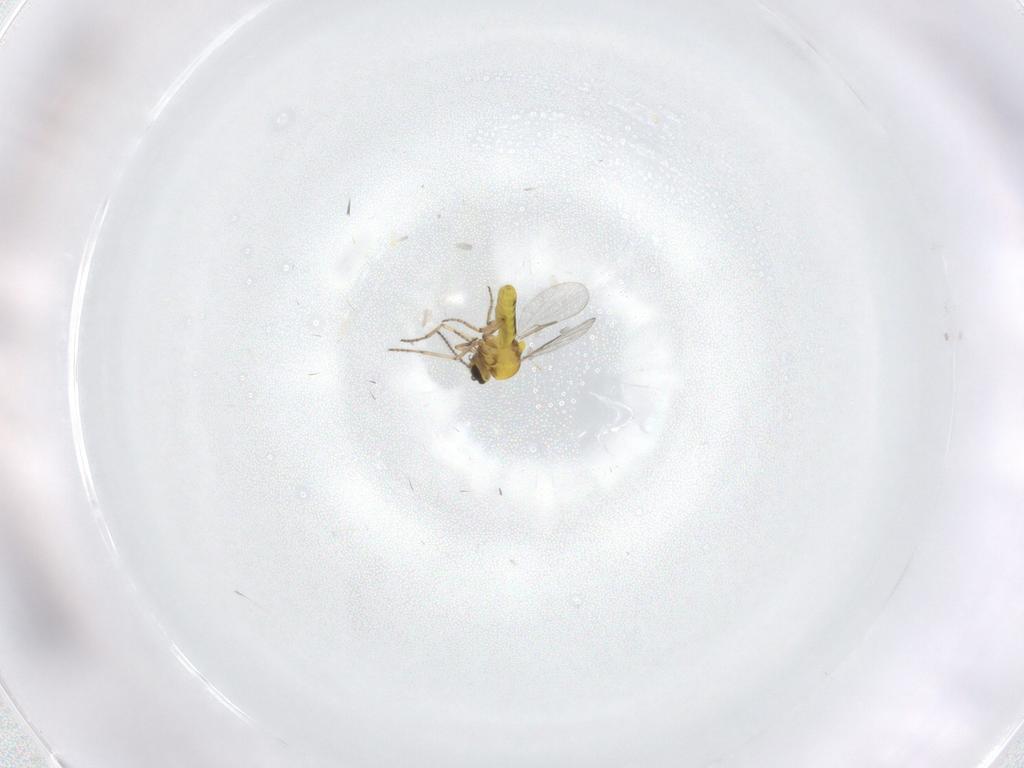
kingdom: Animalia
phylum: Arthropoda
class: Insecta
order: Diptera
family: Ceratopogonidae
